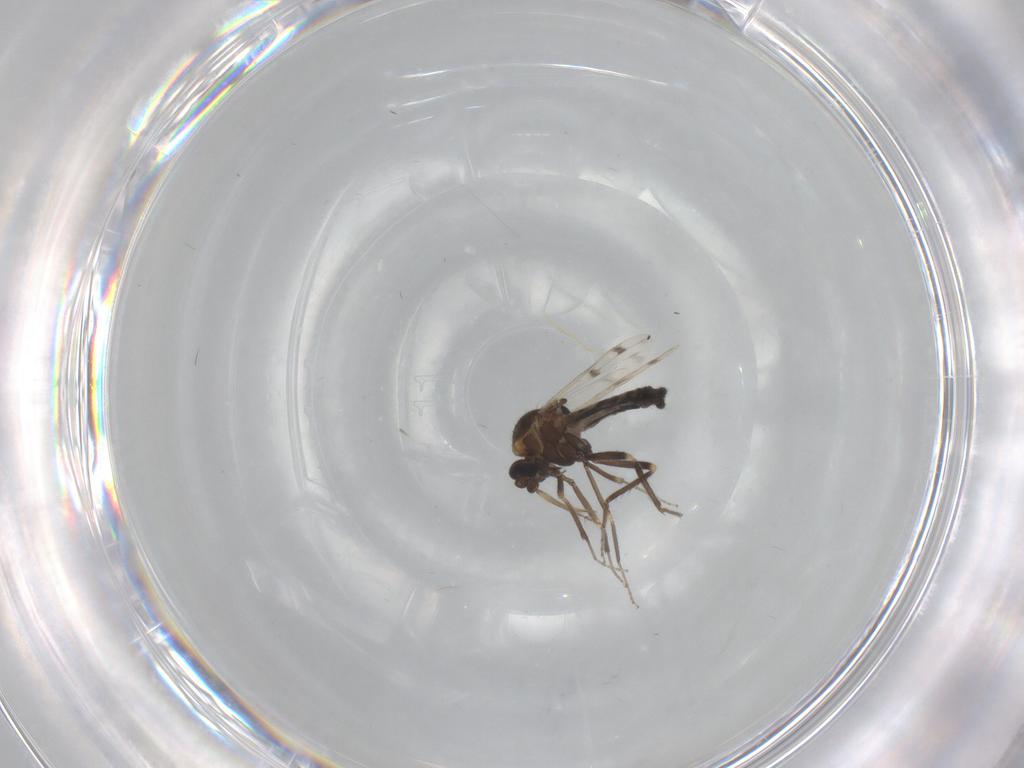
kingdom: Animalia
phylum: Arthropoda
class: Insecta
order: Diptera
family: Ceratopogonidae
